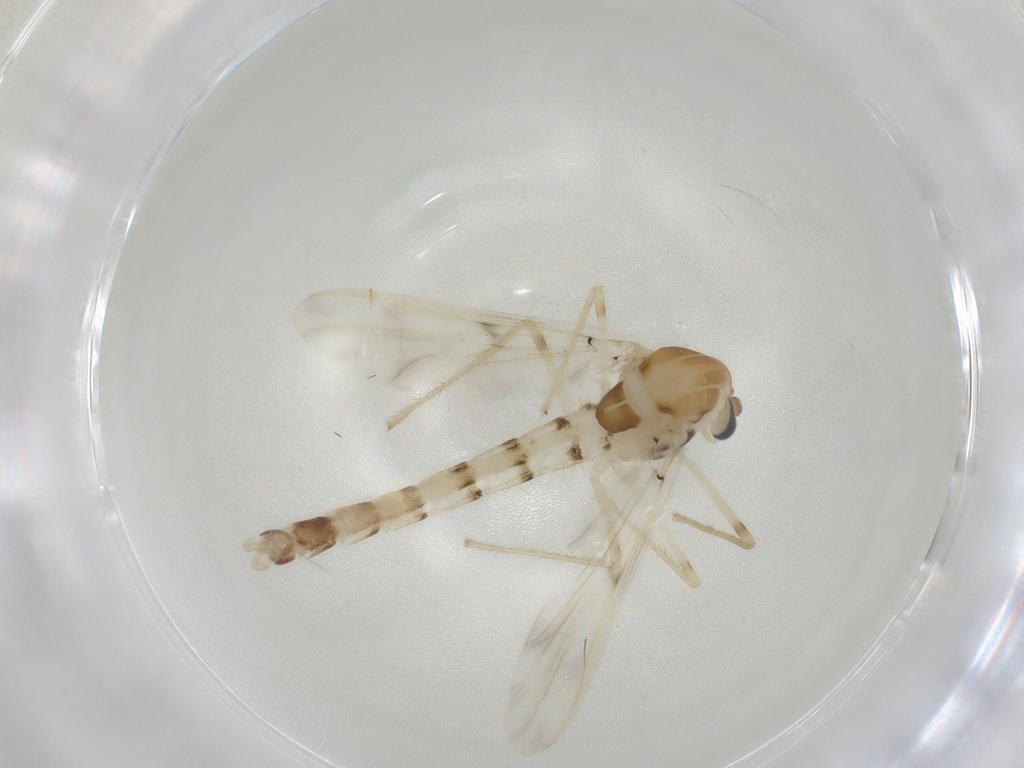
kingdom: Animalia
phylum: Arthropoda
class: Insecta
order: Diptera
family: Chironomidae
